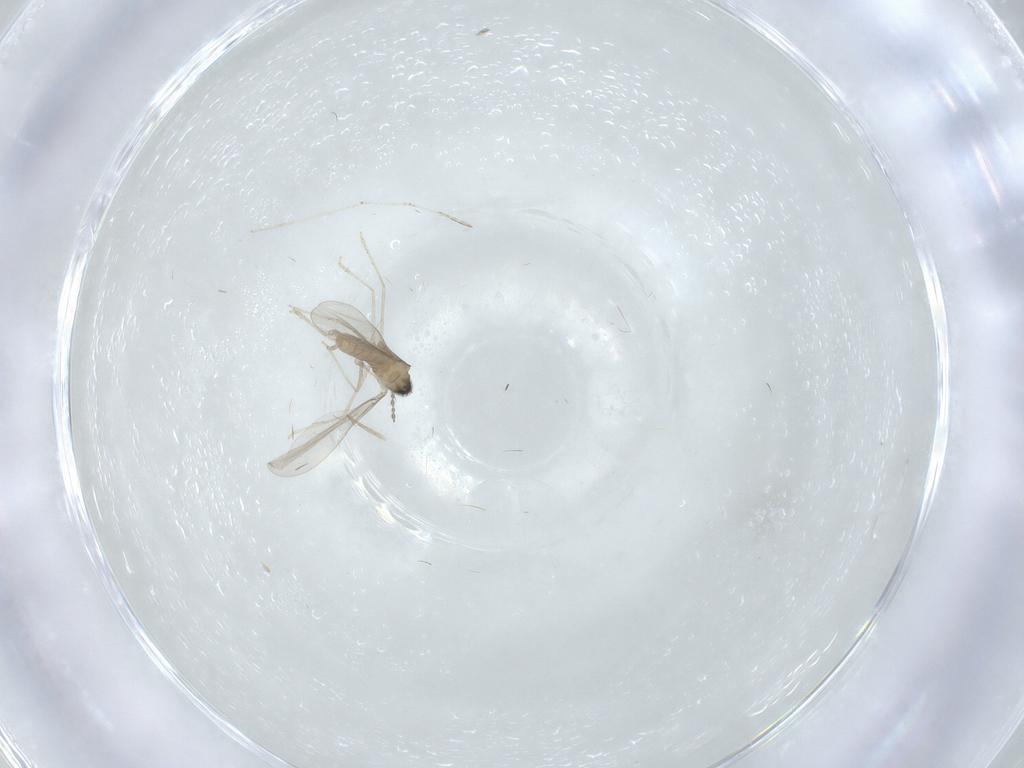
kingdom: Animalia
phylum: Arthropoda
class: Insecta
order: Diptera
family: Cecidomyiidae
